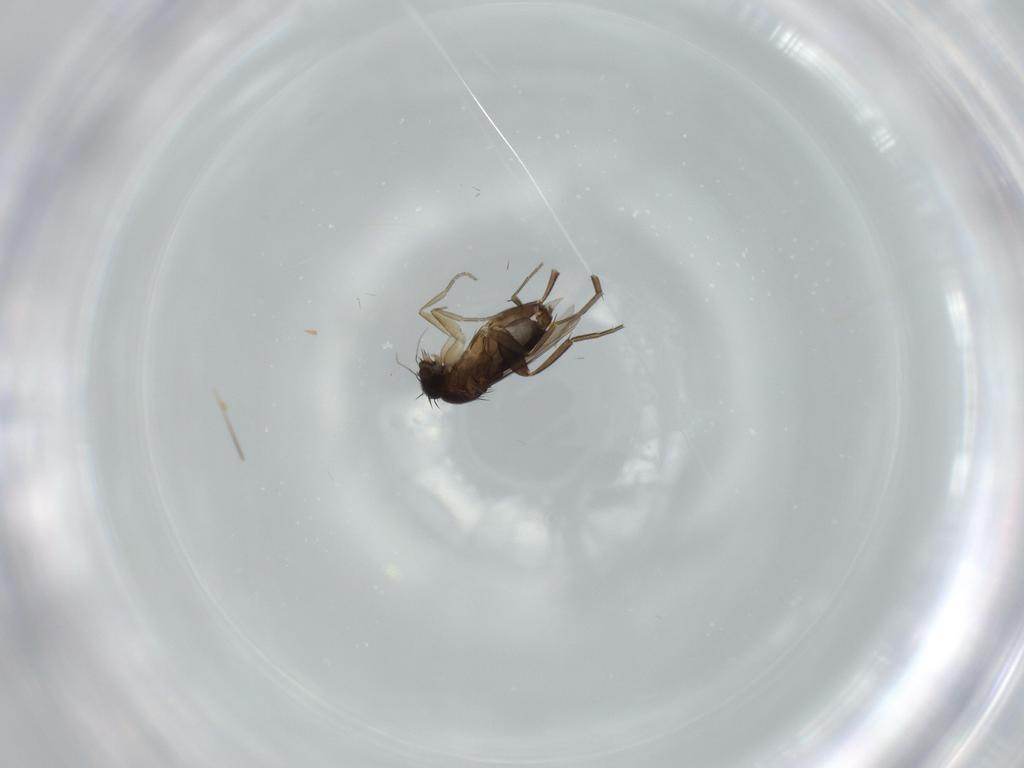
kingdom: Animalia
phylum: Arthropoda
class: Insecta
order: Diptera
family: Phoridae
